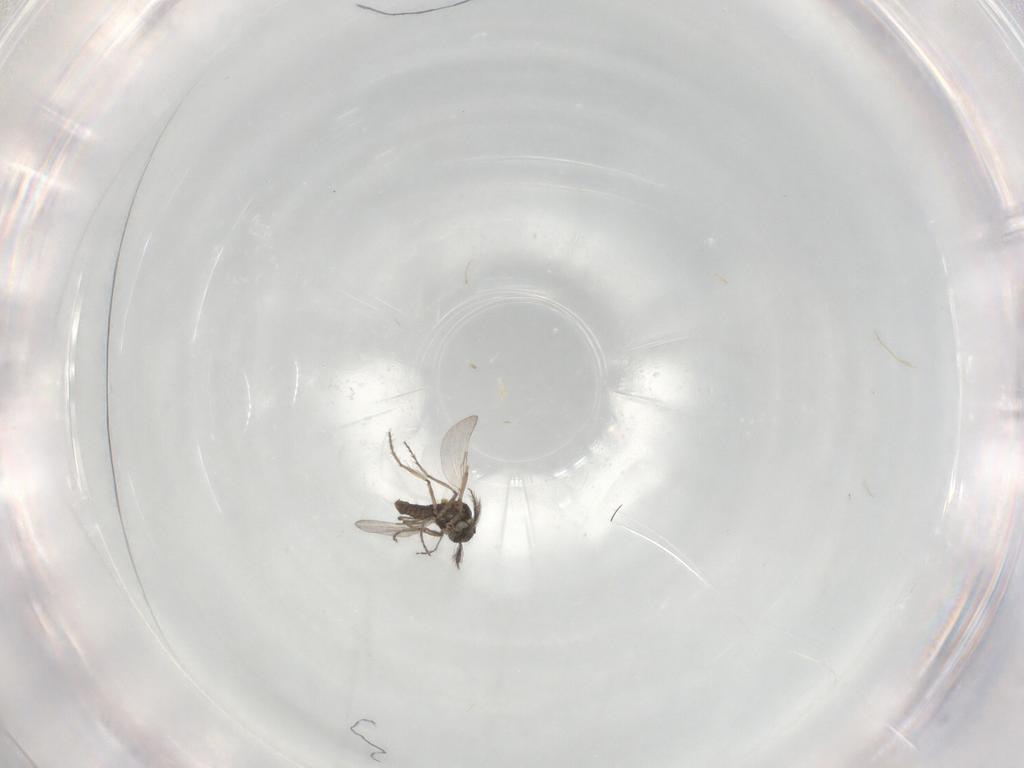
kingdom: Animalia
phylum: Arthropoda
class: Insecta
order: Diptera
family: Ceratopogonidae
